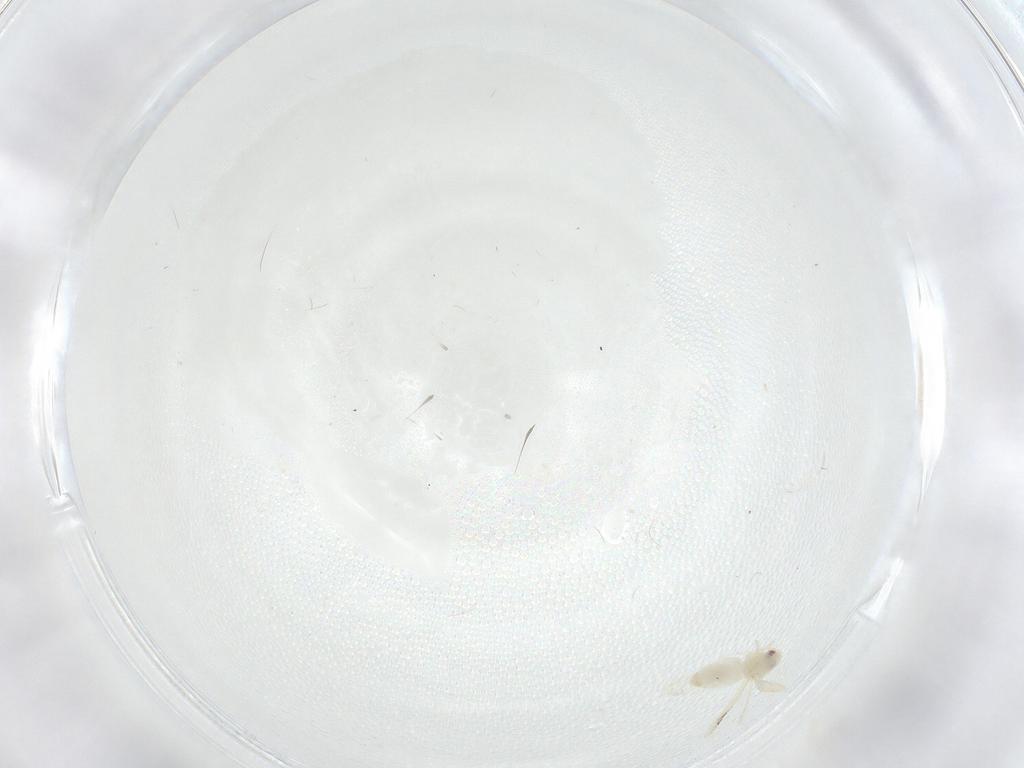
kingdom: Animalia
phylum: Arthropoda
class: Insecta
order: Hemiptera
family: Aleyrodidae
